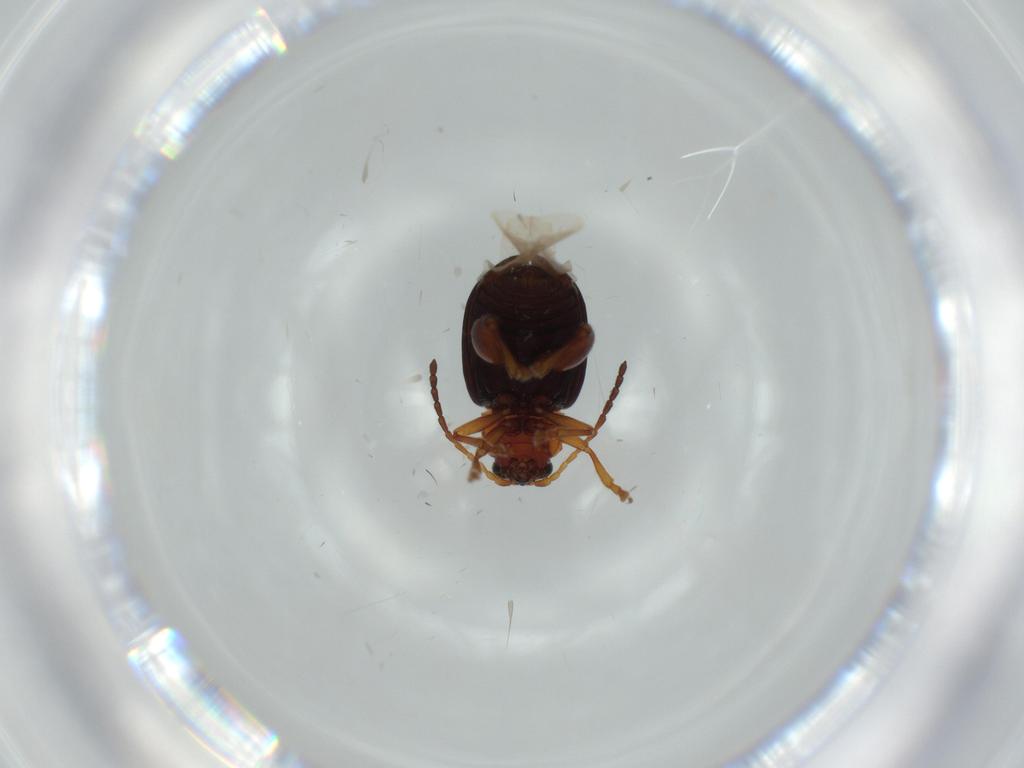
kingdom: Animalia
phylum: Arthropoda
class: Insecta
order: Coleoptera
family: Chrysomelidae
